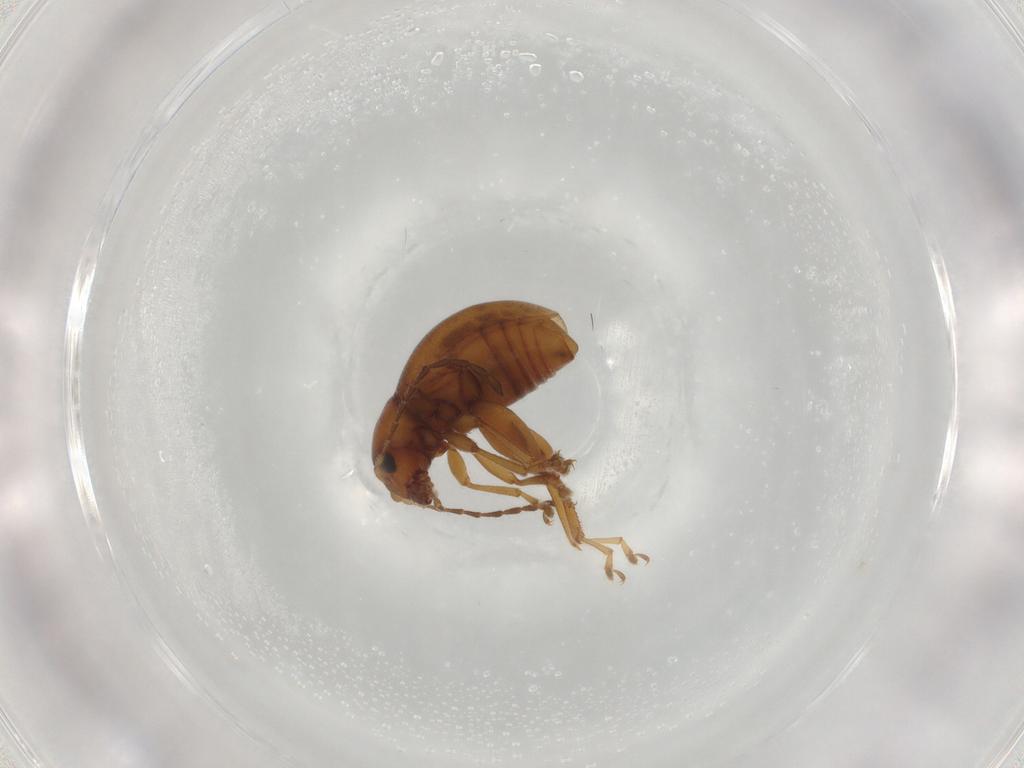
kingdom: Animalia
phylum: Arthropoda
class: Insecta
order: Coleoptera
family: Chrysomelidae
